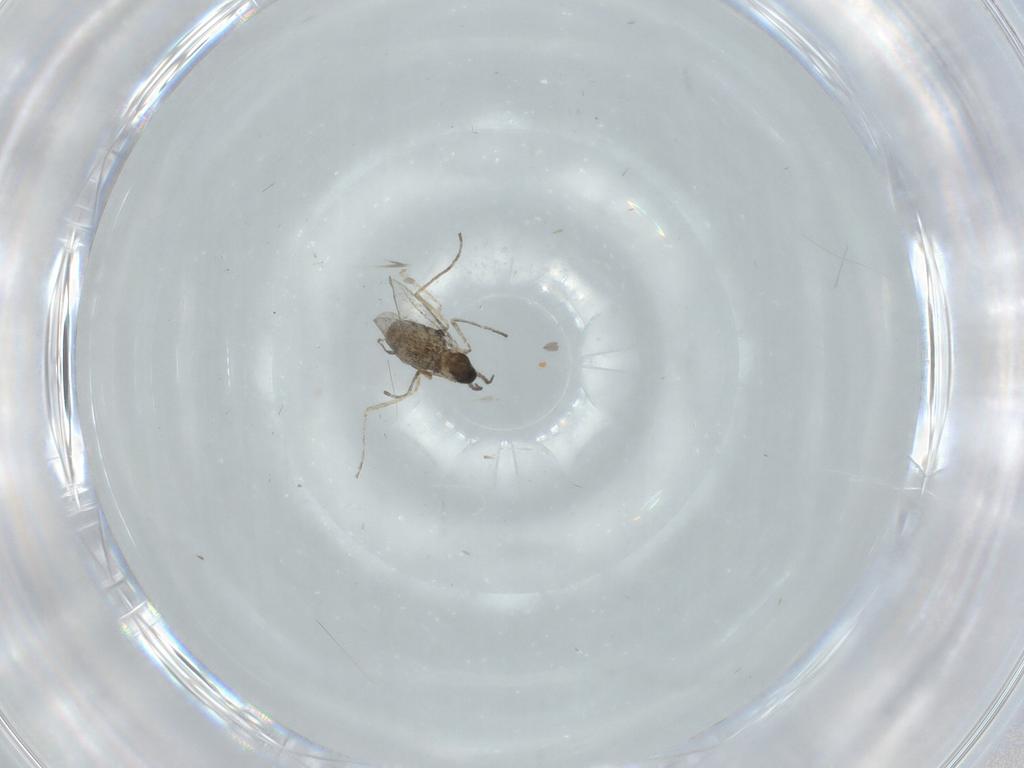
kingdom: Animalia
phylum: Arthropoda
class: Insecta
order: Diptera
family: Cecidomyiidae
